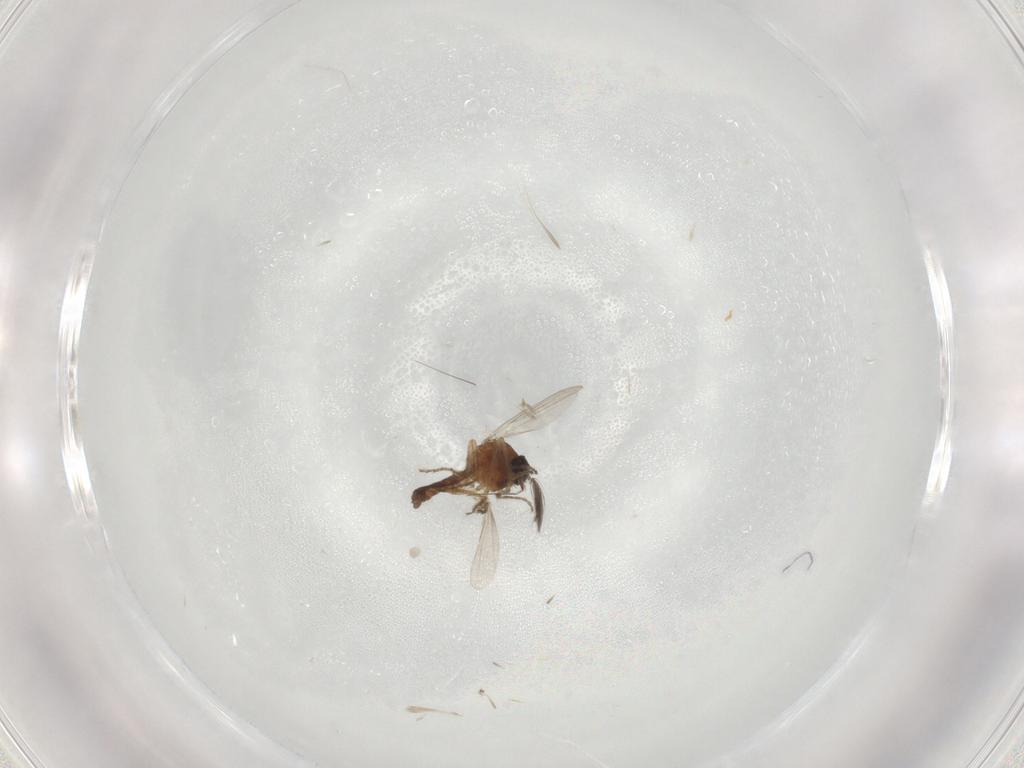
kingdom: Animalia
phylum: Arthropoda
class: Insecta
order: Diptera
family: Ceratopogonidae
